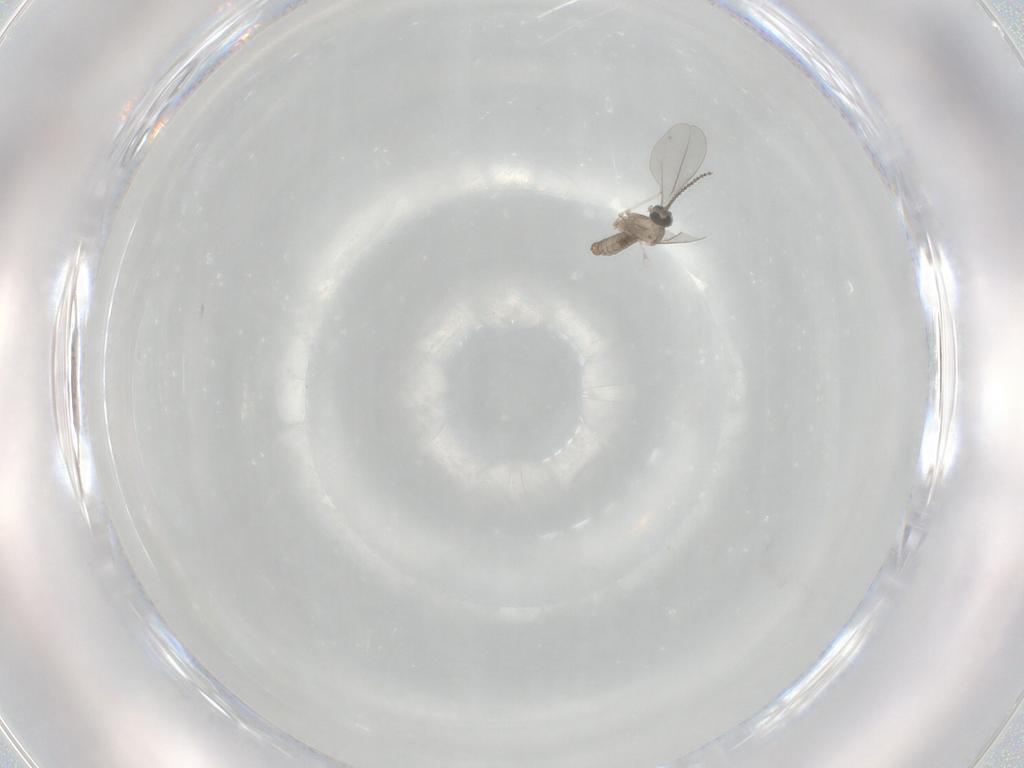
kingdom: Animalia
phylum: Arthropoda
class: Insecta
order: Diptera
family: Cecidomyiidae
